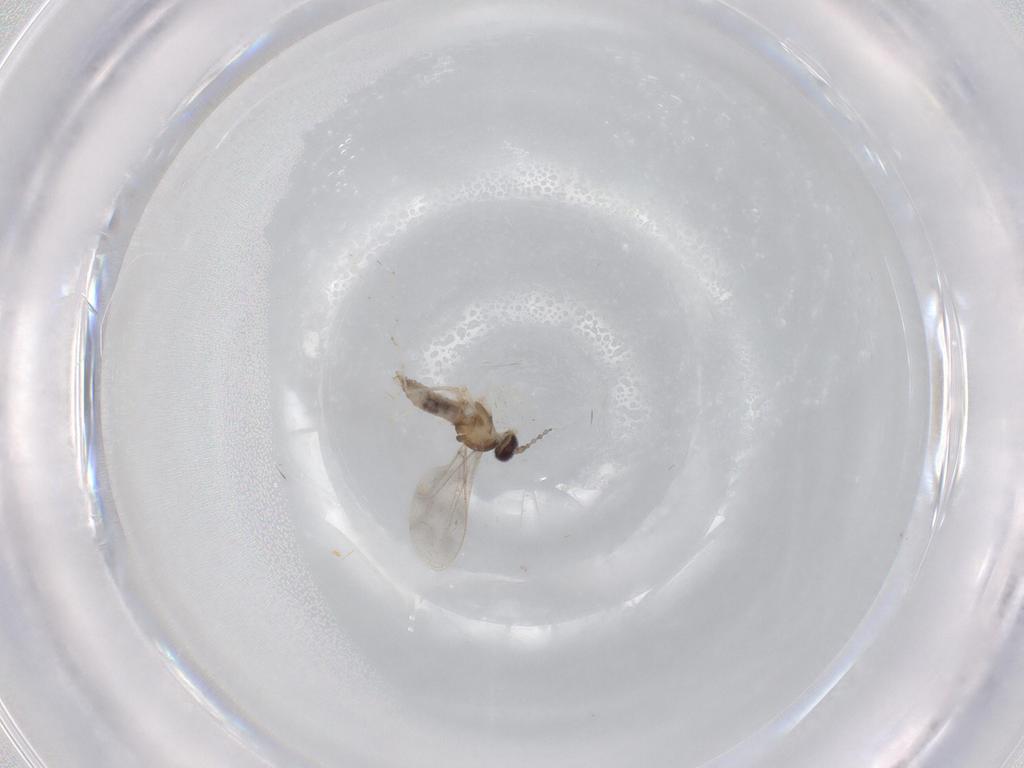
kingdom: Animalia
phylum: Arthropoda
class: Insecta
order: Diptera
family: Cecidomyiidae
